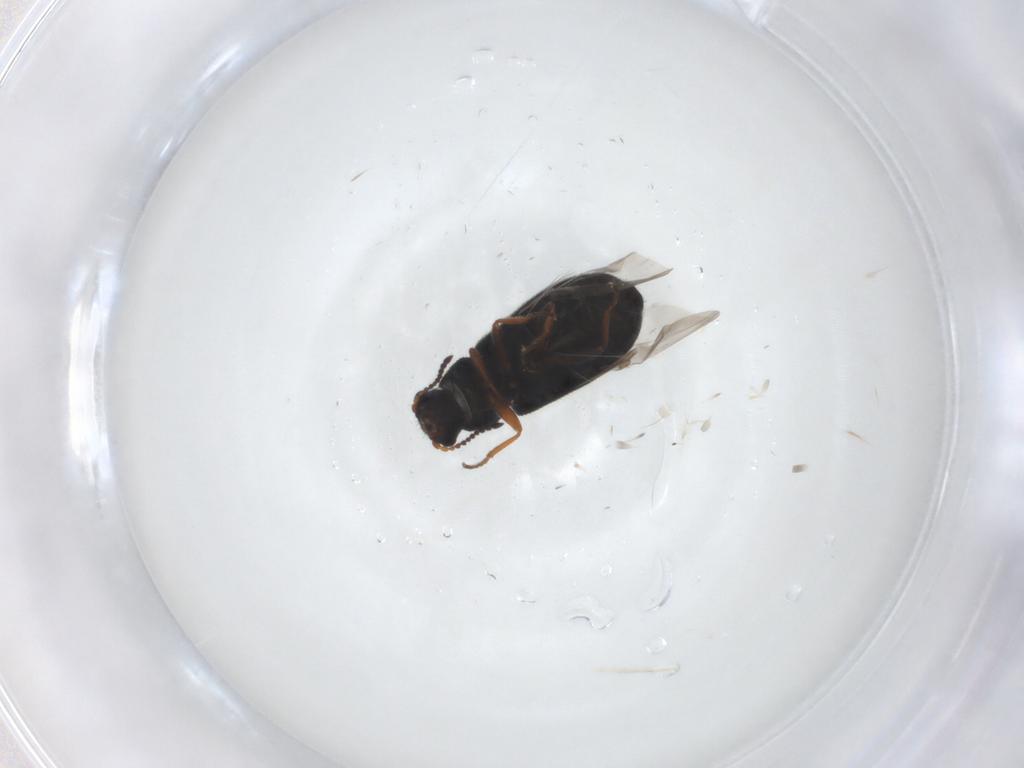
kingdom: Animalia
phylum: Arthropoda
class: Insecta
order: Coleoptera
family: Melyridae
